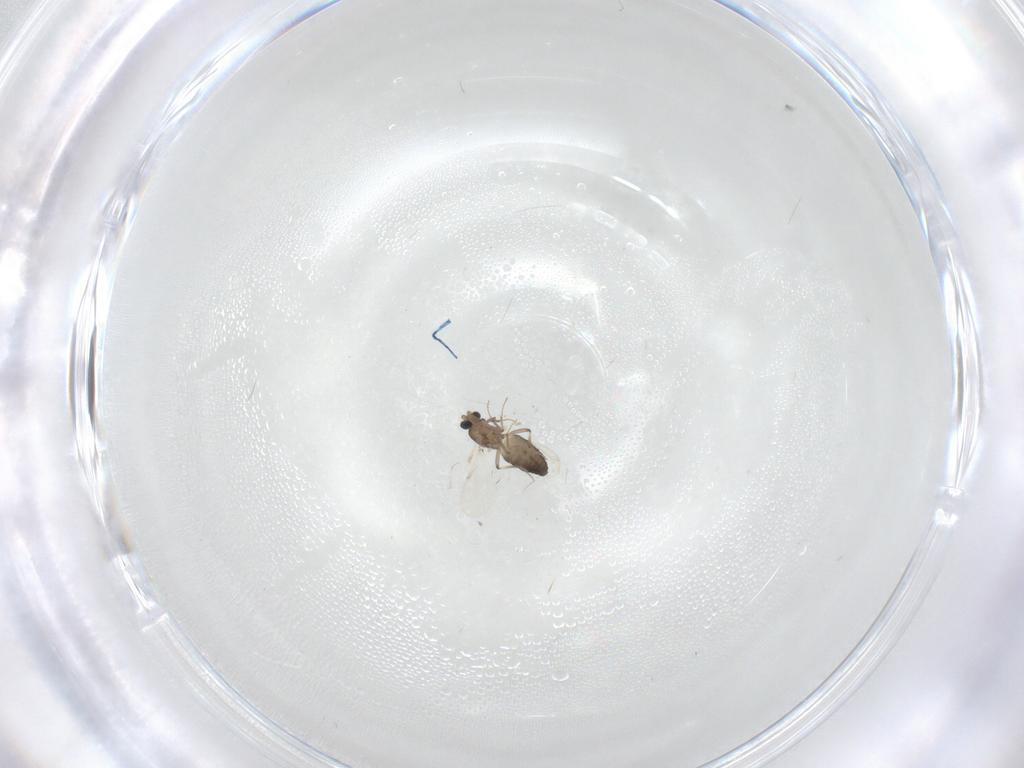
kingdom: Animalia
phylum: Arthropoda
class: Insecta
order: Diptera
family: Ceratopogonidae
